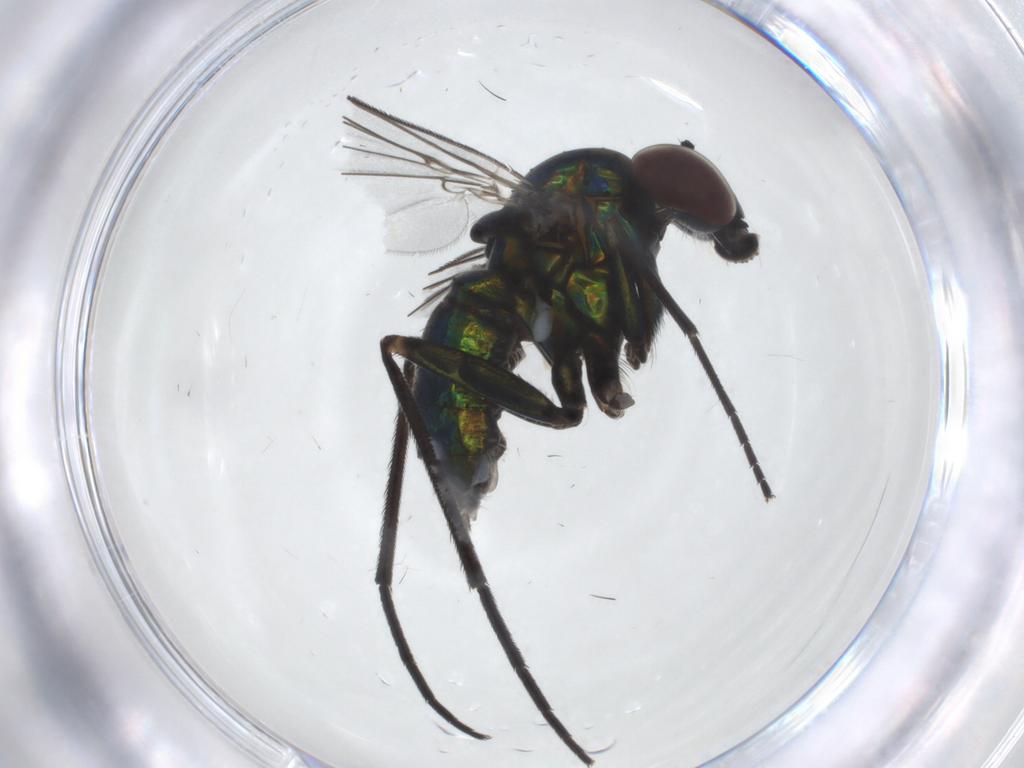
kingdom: Animalia
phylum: Arthropoda
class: Insecta
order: Diptera
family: Dolichopodidae
